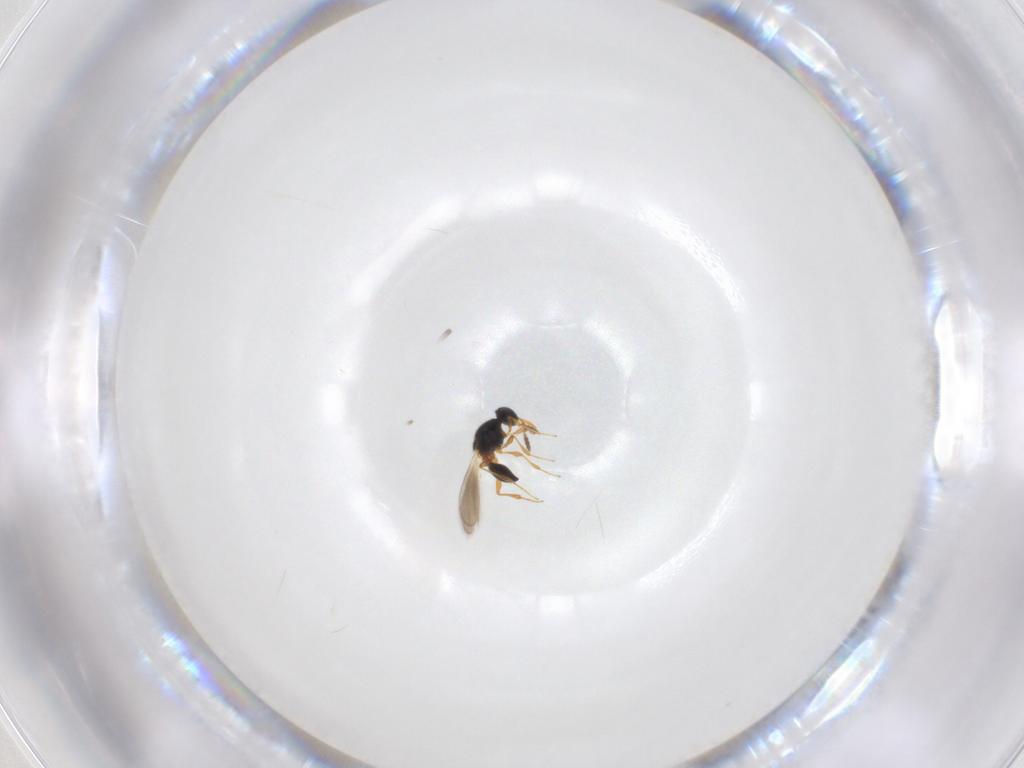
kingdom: Animalia
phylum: Arthropoda
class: Insecta
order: Hymenoptera
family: Platygastridae
